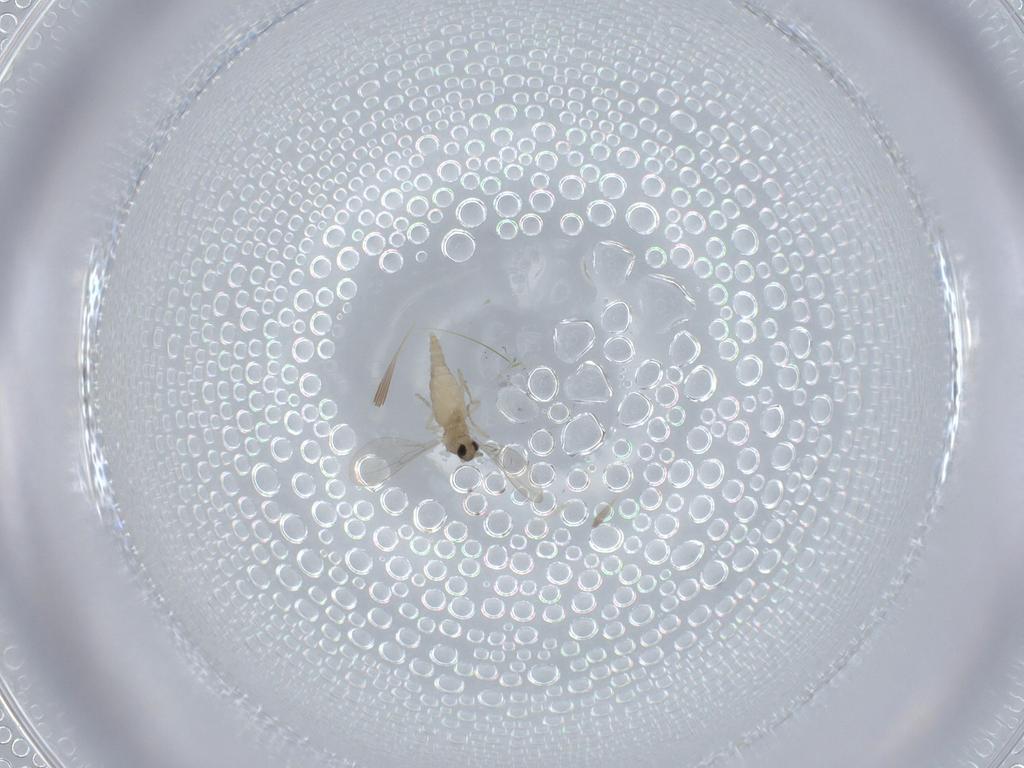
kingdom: Animalia
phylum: Arthropoda
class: Insecta
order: Diptera
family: Cecidomyiidae
